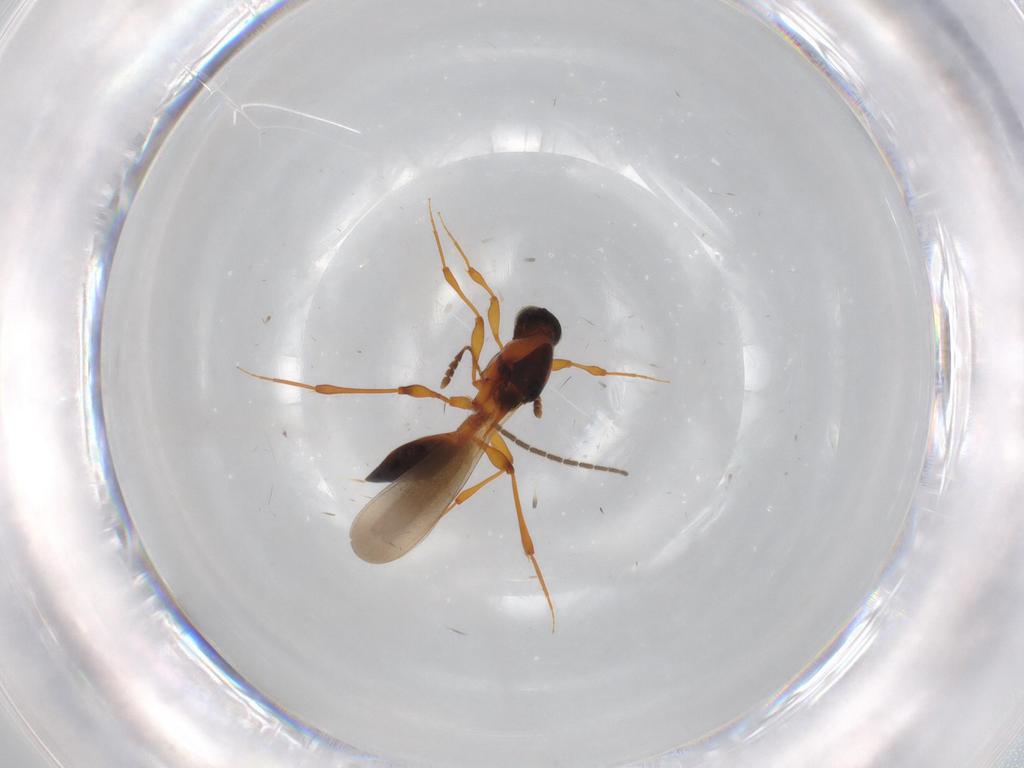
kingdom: Animalia
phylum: Arthropoda
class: Insecta
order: Hymenoptera
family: Platygastridae
